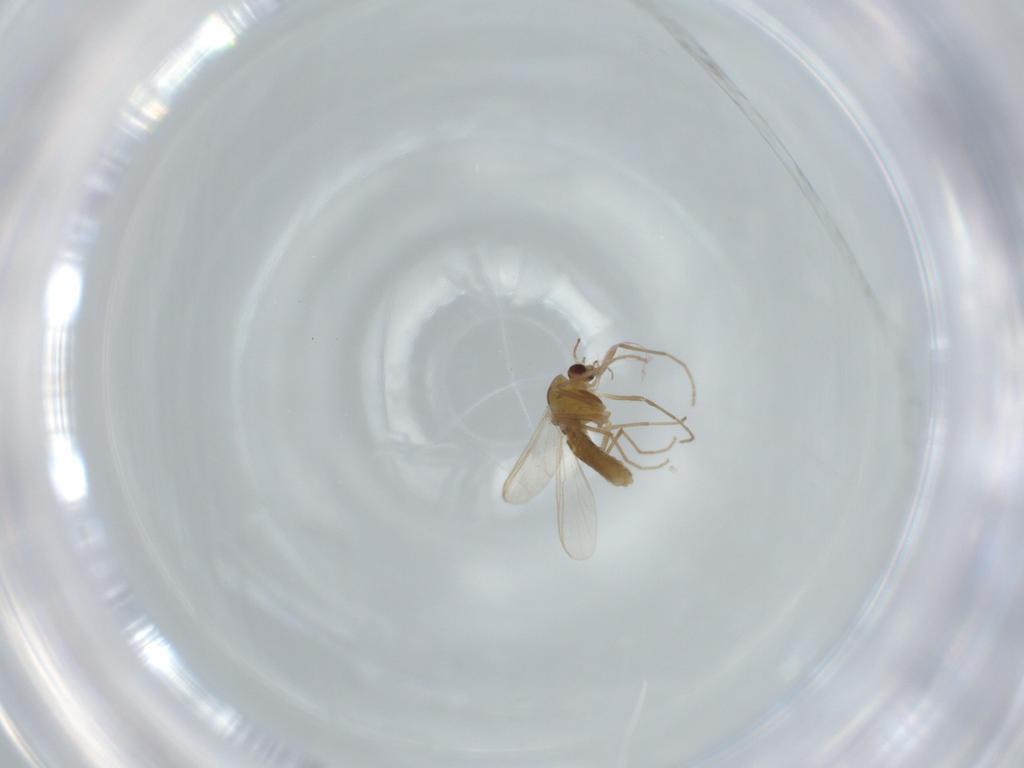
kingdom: Animalia
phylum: Arthropoda
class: Insecta
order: Diptera
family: Chironomidae
